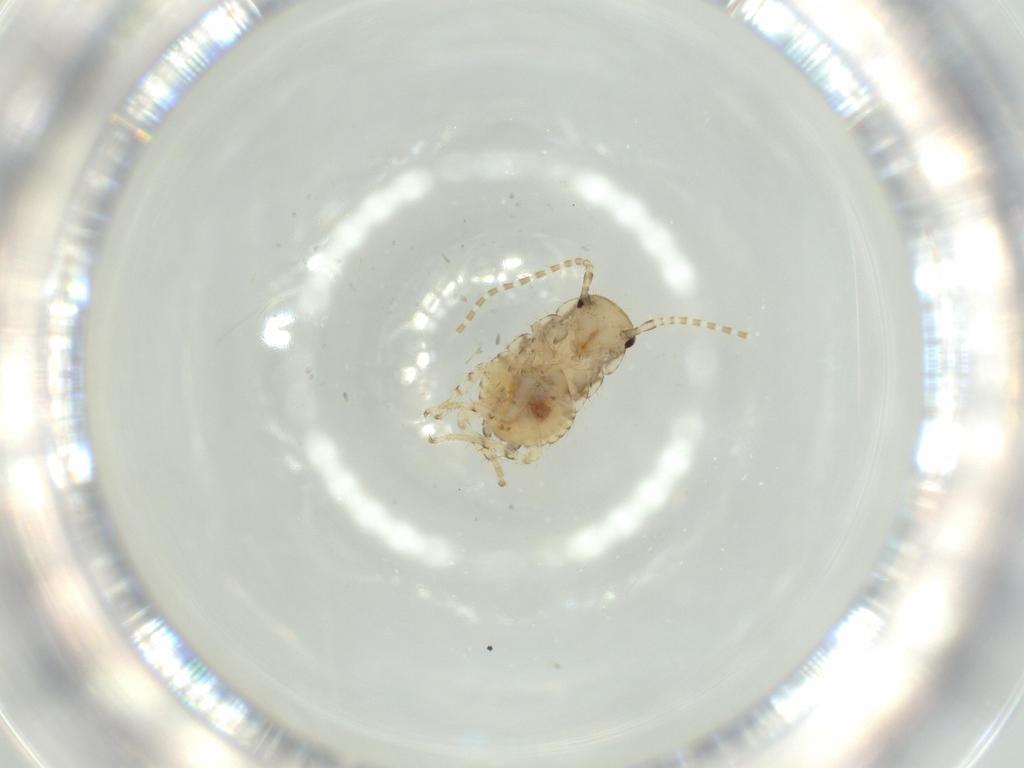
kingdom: Animalia
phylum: Arthropoda
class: Insecta
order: Blattodea
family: Ectobiidae
